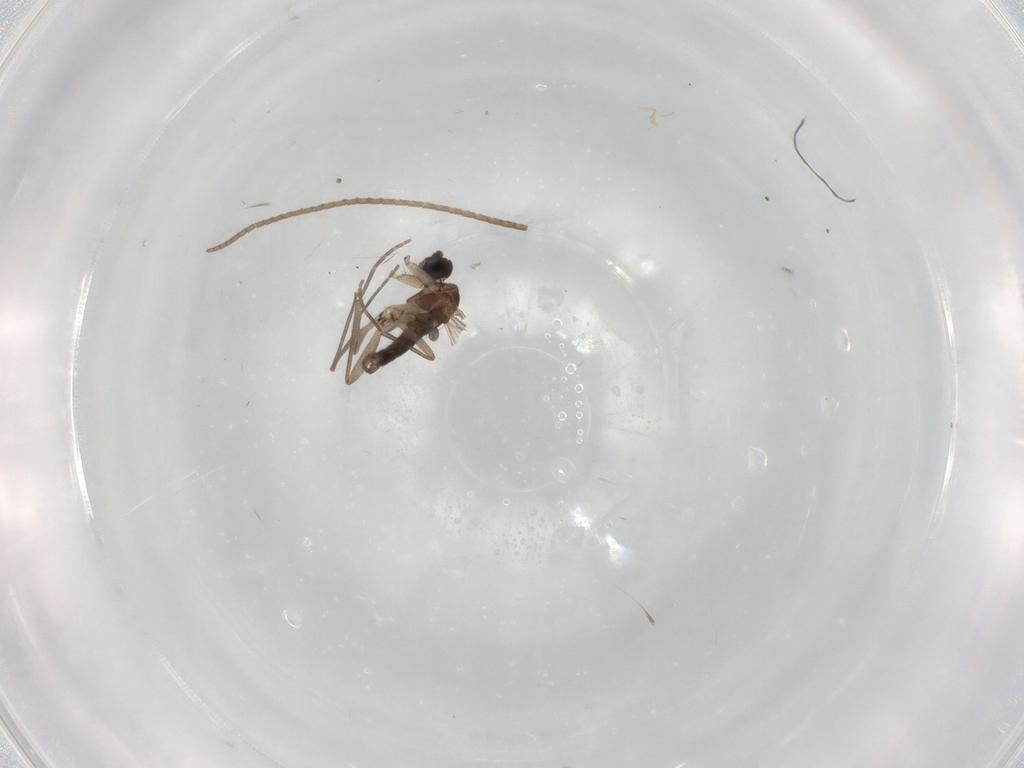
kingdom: Animalia
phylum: Arthropoda
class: Insecta
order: Diptera
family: Sciaridae
